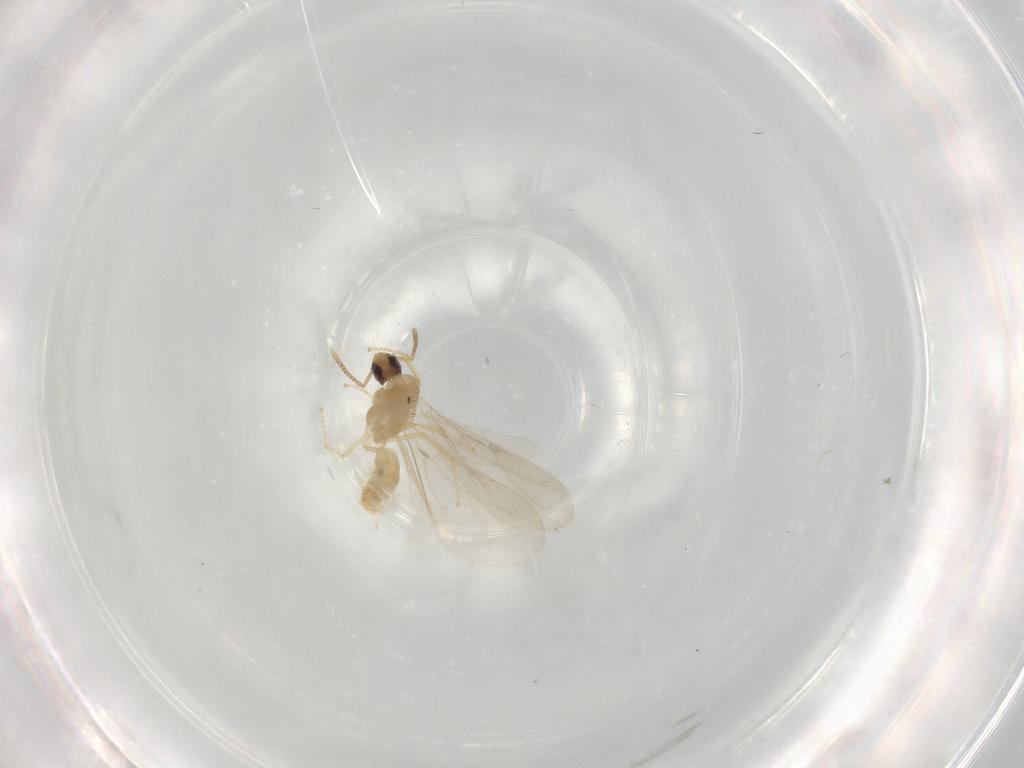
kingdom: Animalia
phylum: Arthropoda
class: Insecta
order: Hymenoptera
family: Formicidae
